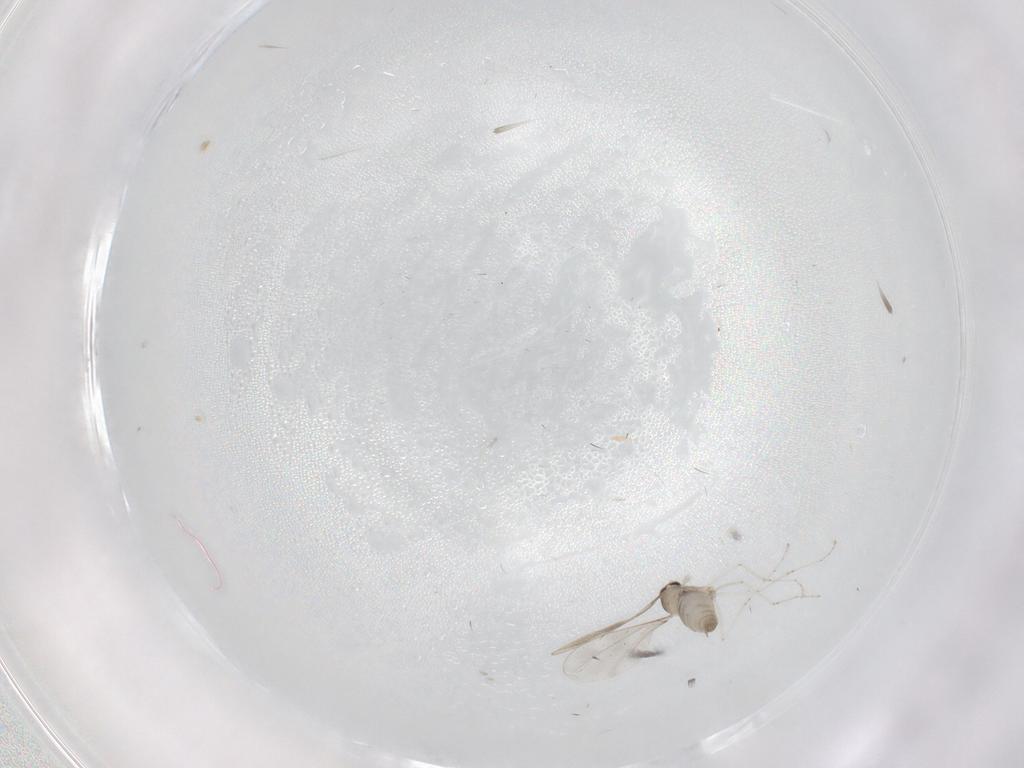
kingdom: Animalia
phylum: Arthropoda
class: Insecta
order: Diptera
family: Cecidomyiidae
